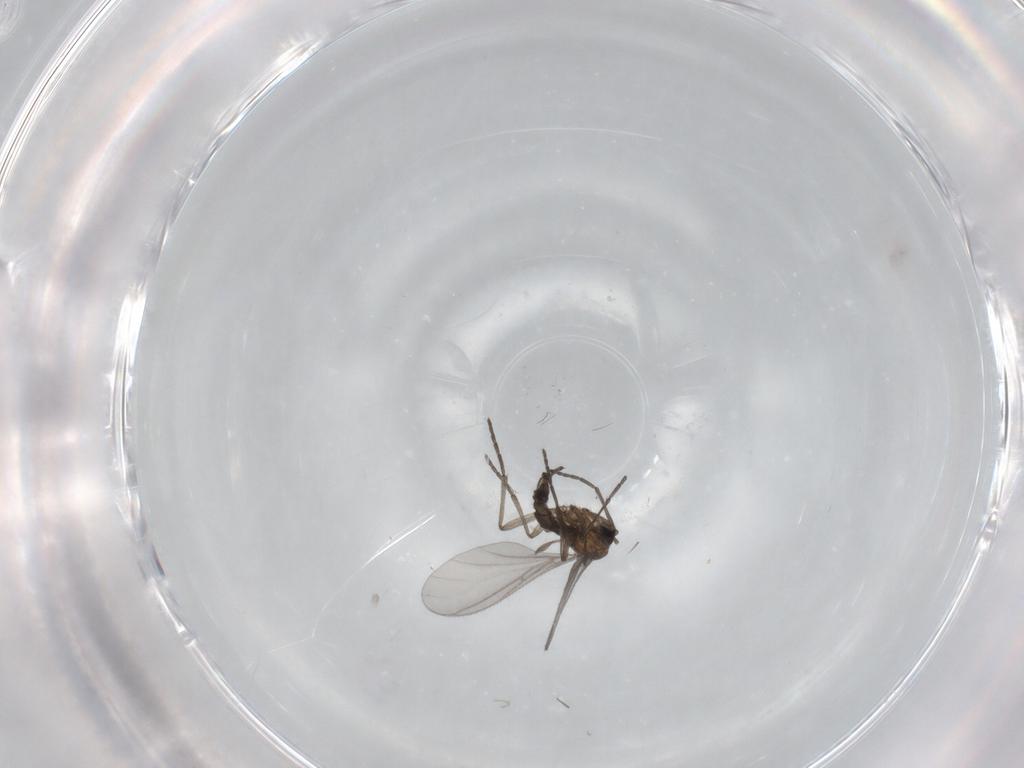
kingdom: Animalia
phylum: Arthropoda
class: Insecta
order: Diptera
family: Sciaridae
